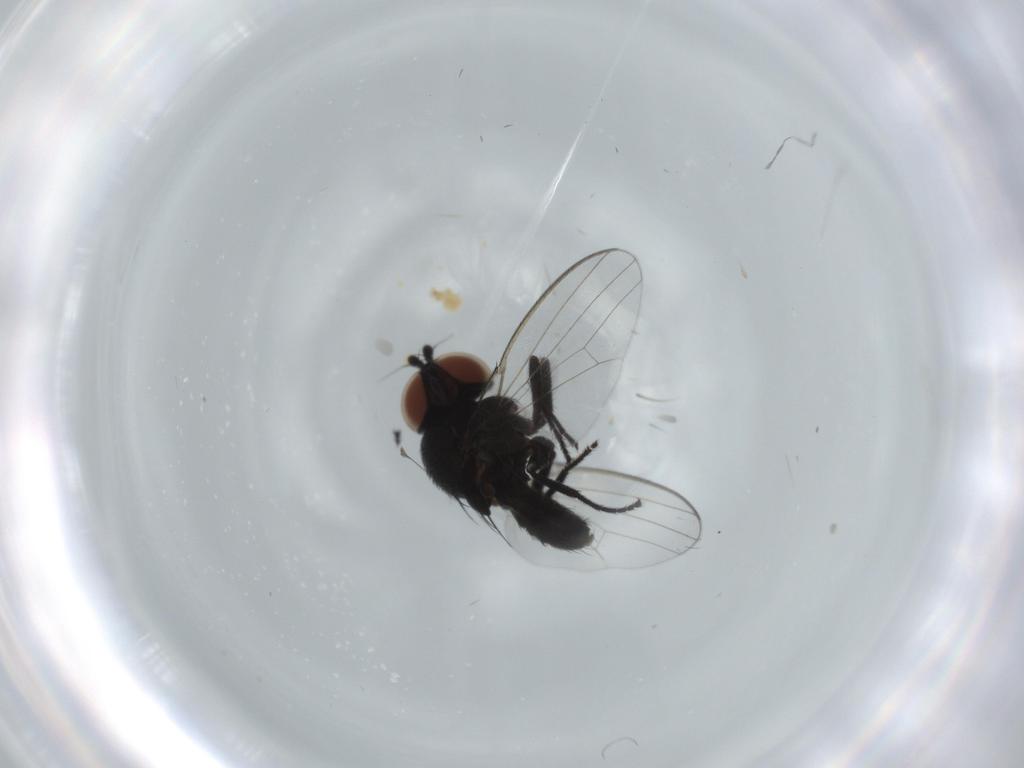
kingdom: Animalia
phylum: Arthropoda
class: Insecta
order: Diptera
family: Milichiidae
